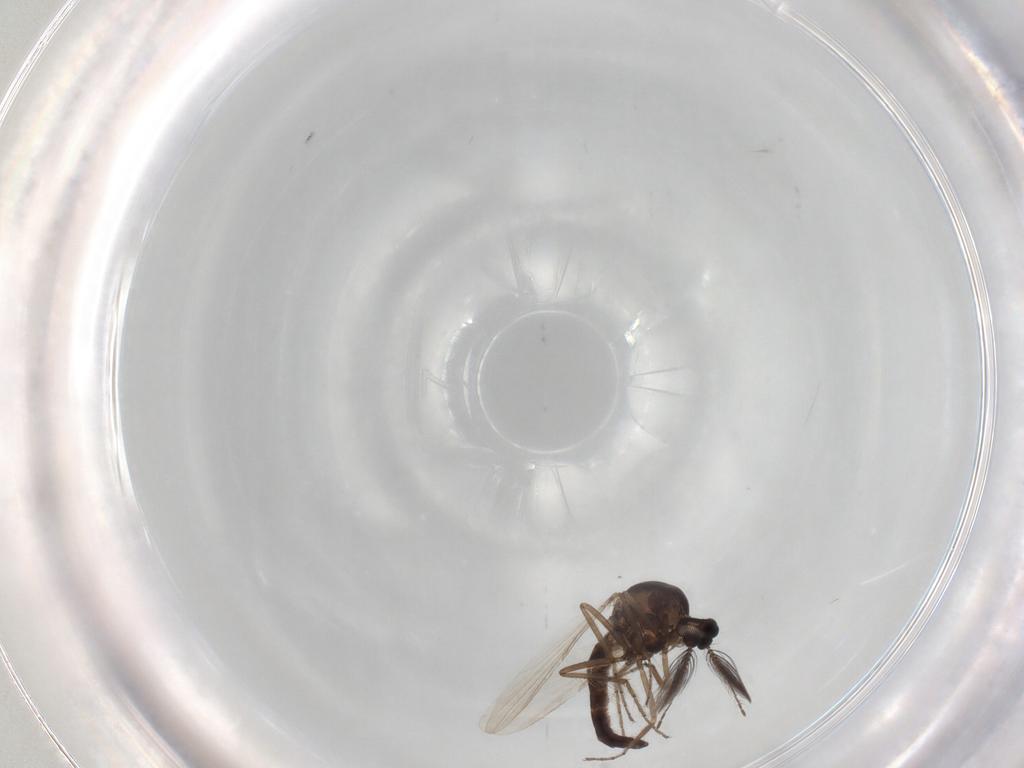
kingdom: Animalia
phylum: Arthropoda
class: Insecta
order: Diptera
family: Ceratopogonidae
